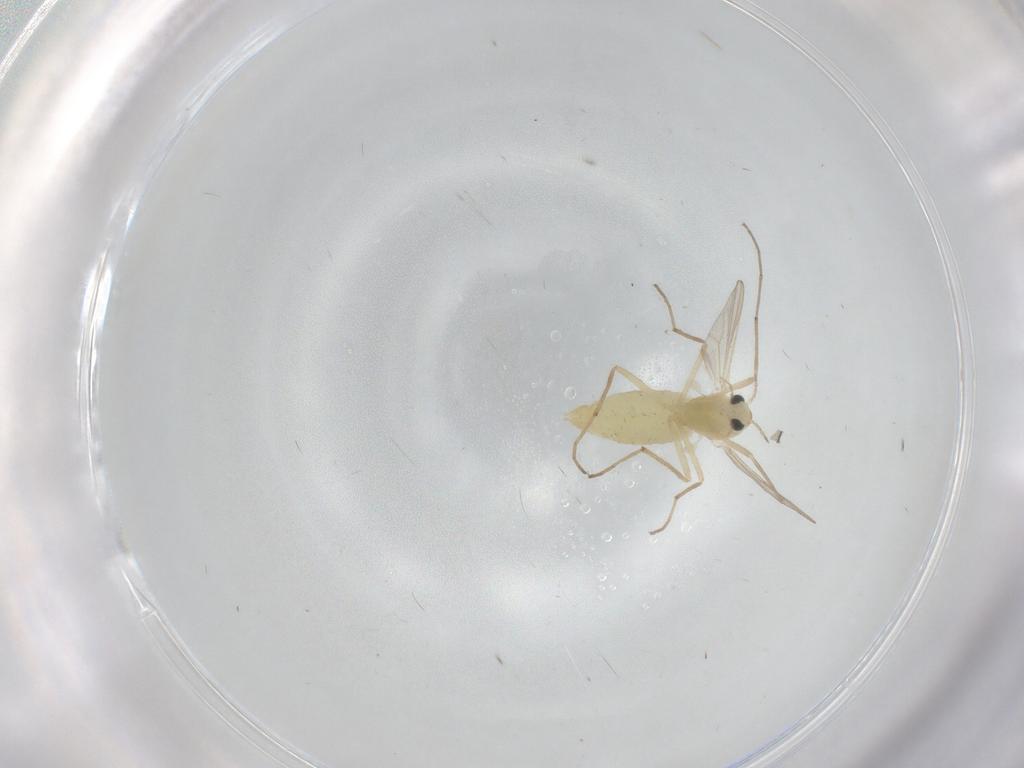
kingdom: Animalia
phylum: Arthropoda
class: Insecta
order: Diptera
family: Chironomidae
